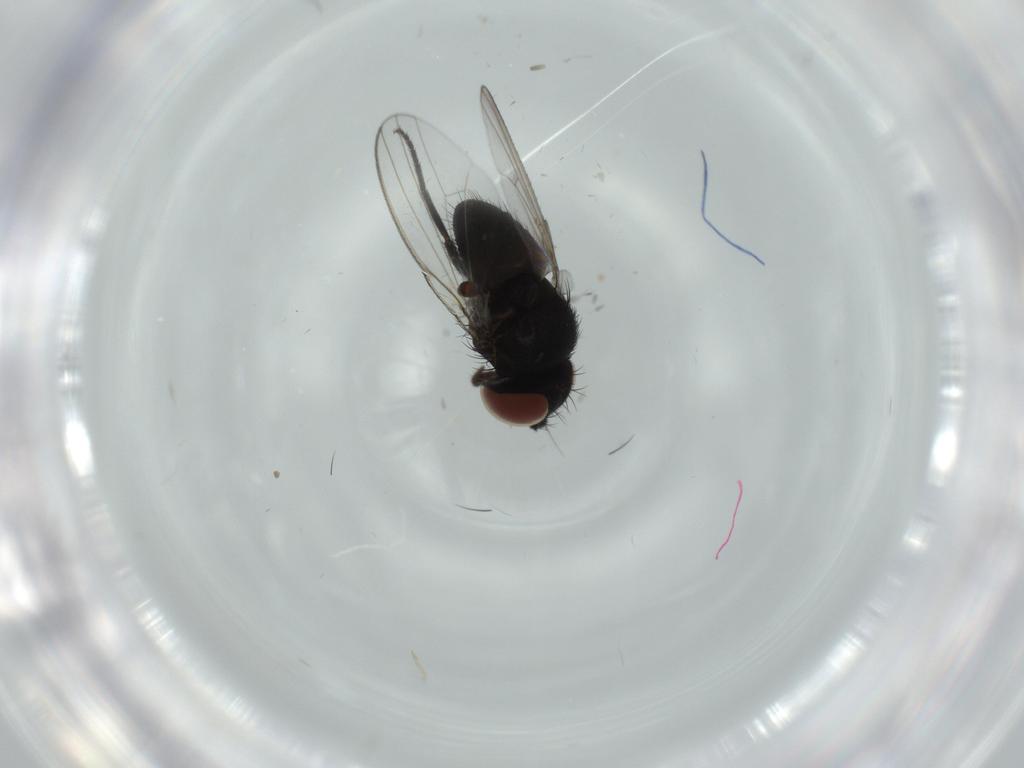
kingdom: Animalia
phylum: Arthropoda
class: Insecta
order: Diptera
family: Milichiidae
